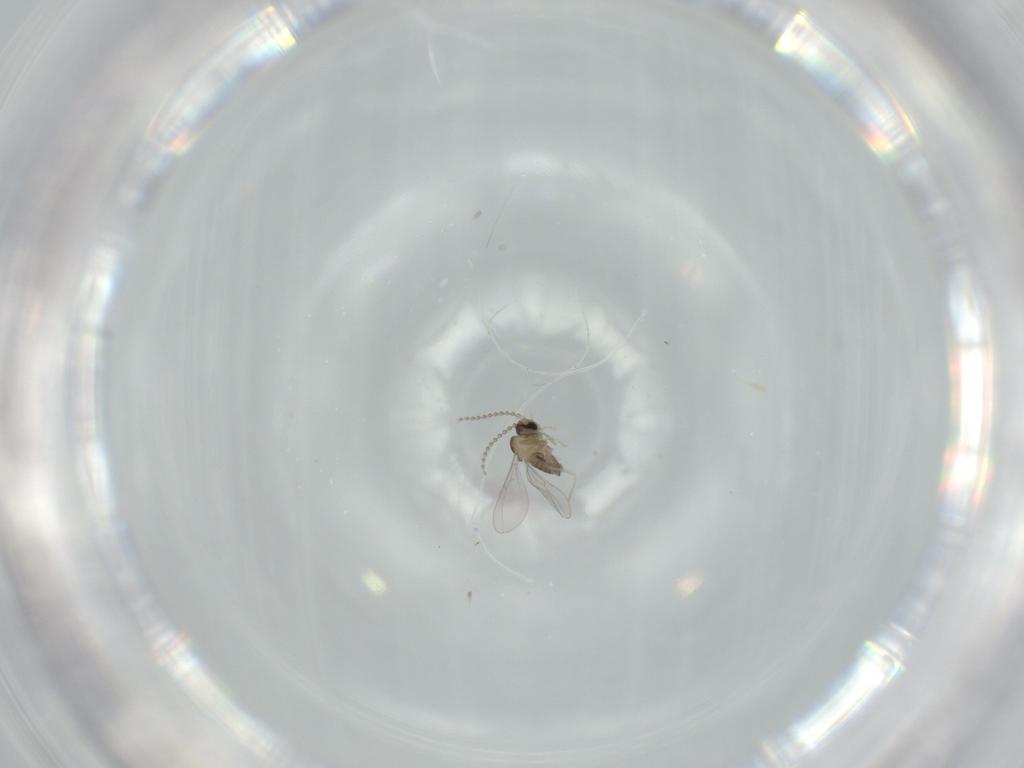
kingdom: Animalia
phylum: Arthropoda
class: Insecta
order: Diptera
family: Cecidomyiidae
